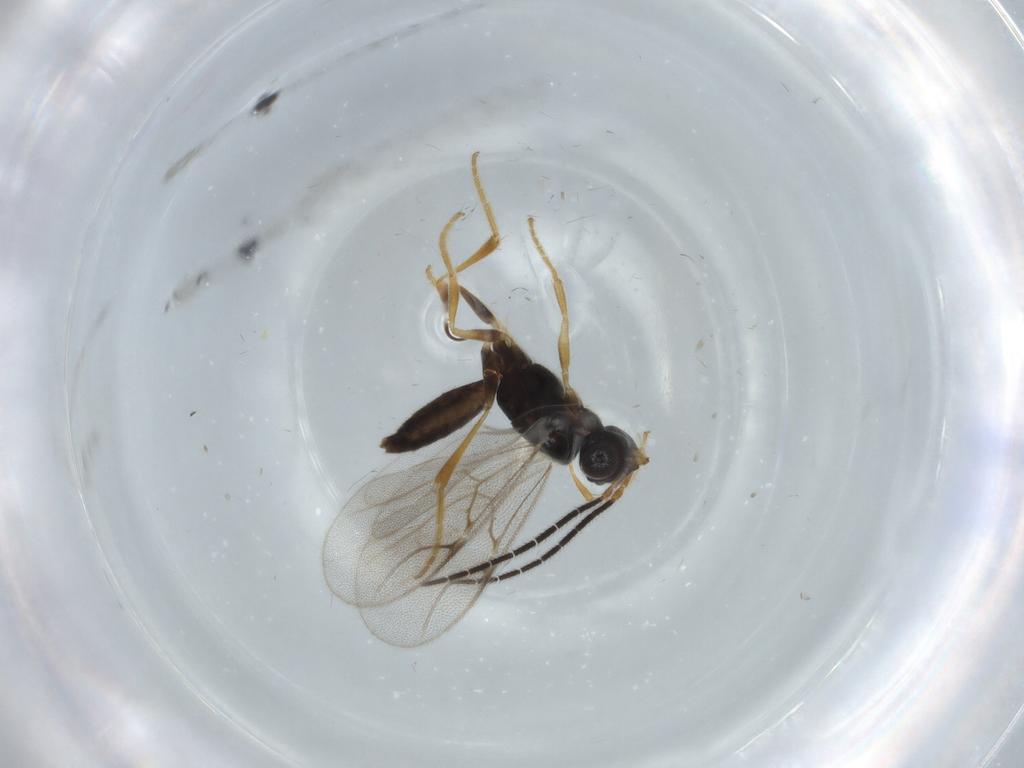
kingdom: Animalia
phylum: Arthropoda
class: Insecta
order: Hymenoptera
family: Dryinidae
